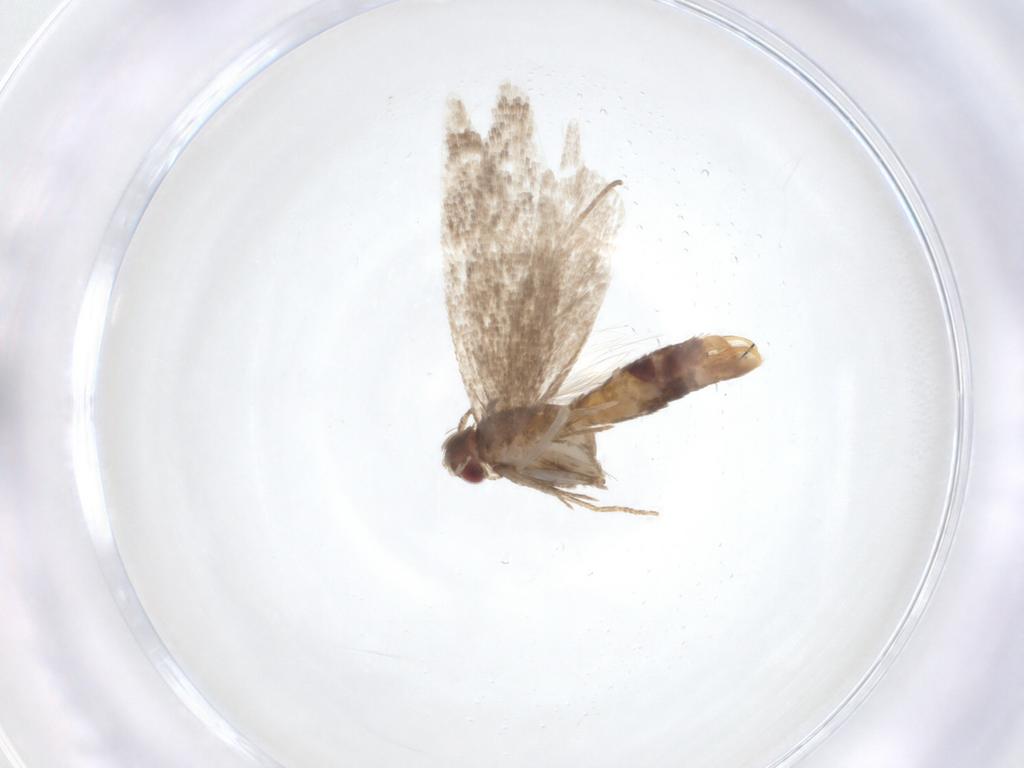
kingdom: Animalia
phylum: Arthropoda
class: Insecta
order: Lepidoptera
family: Gelechiidae
